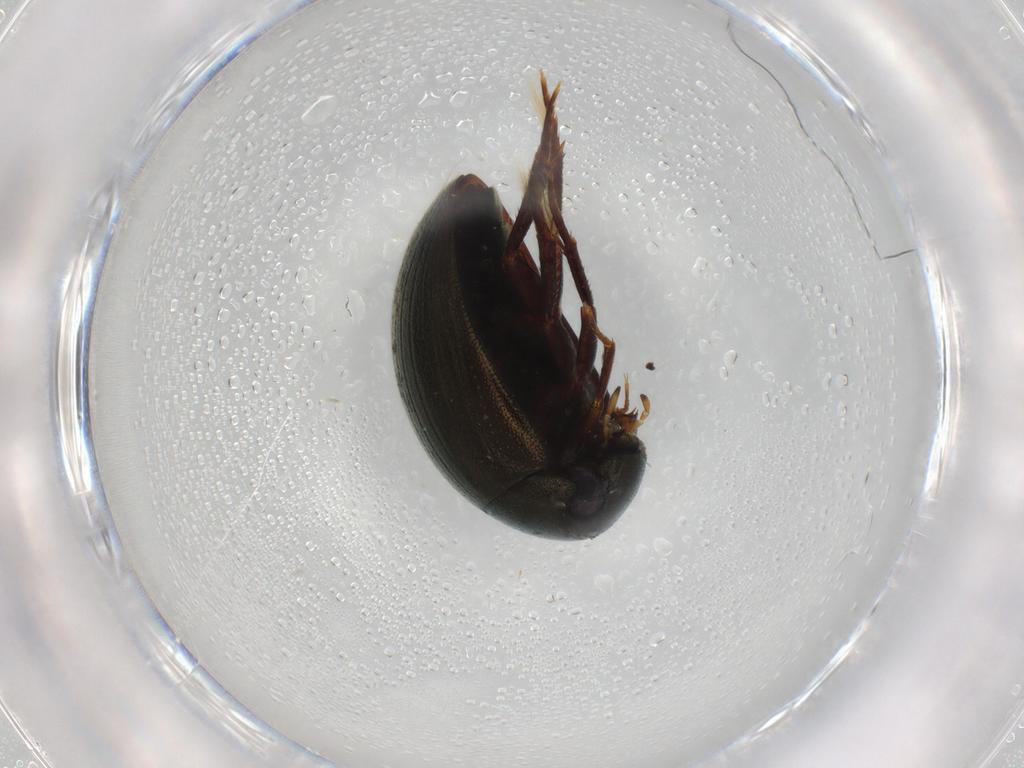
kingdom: Animalia
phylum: Arthropoda
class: Insecta
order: Coleoptera
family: Hydrophilidae
